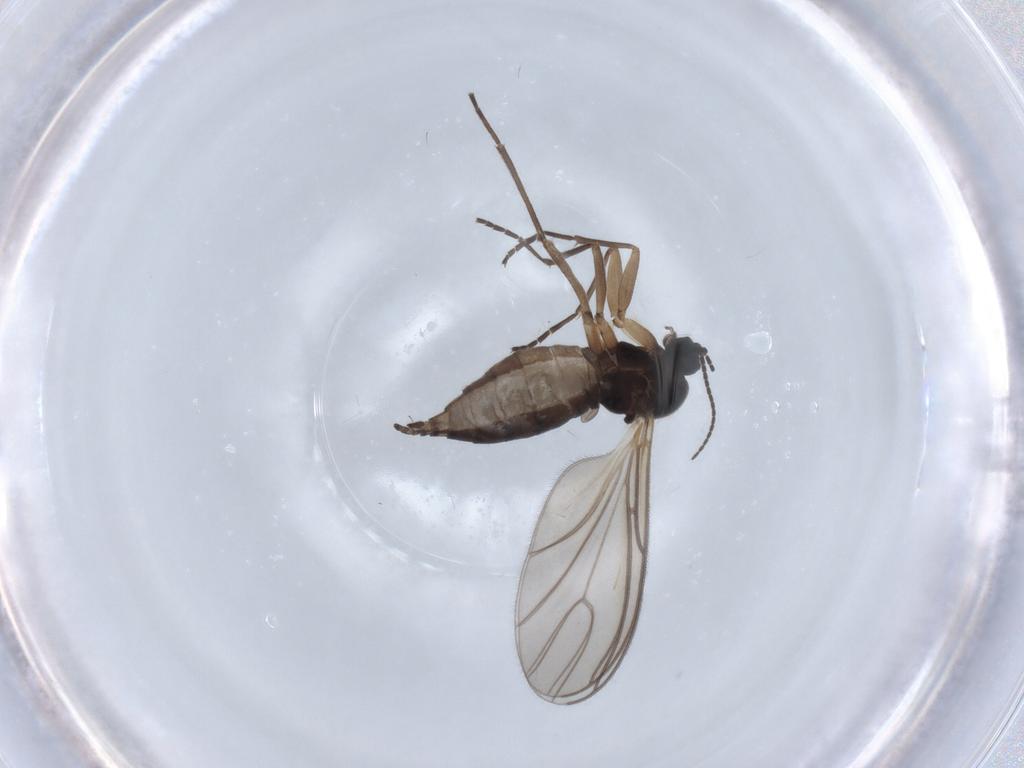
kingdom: Animalia
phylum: Arthropoda
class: Insecta
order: Diptera
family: Sciaridae
